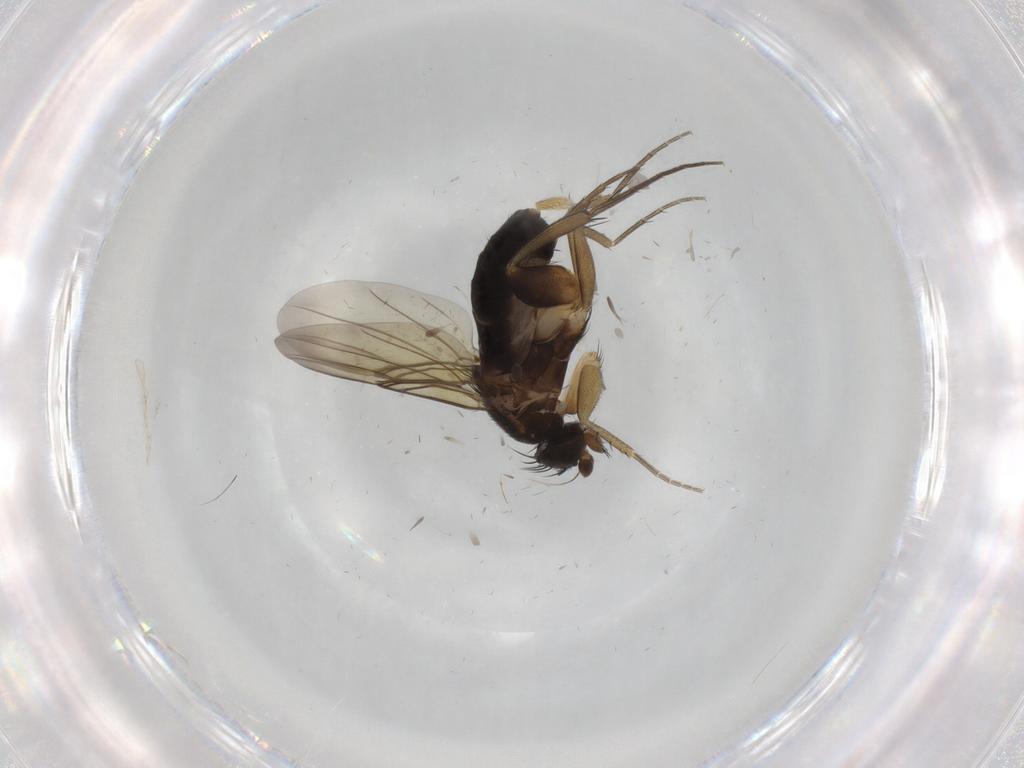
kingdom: Animalia
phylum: Arthropoda
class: Insecta
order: Diptera
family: Phoridae
